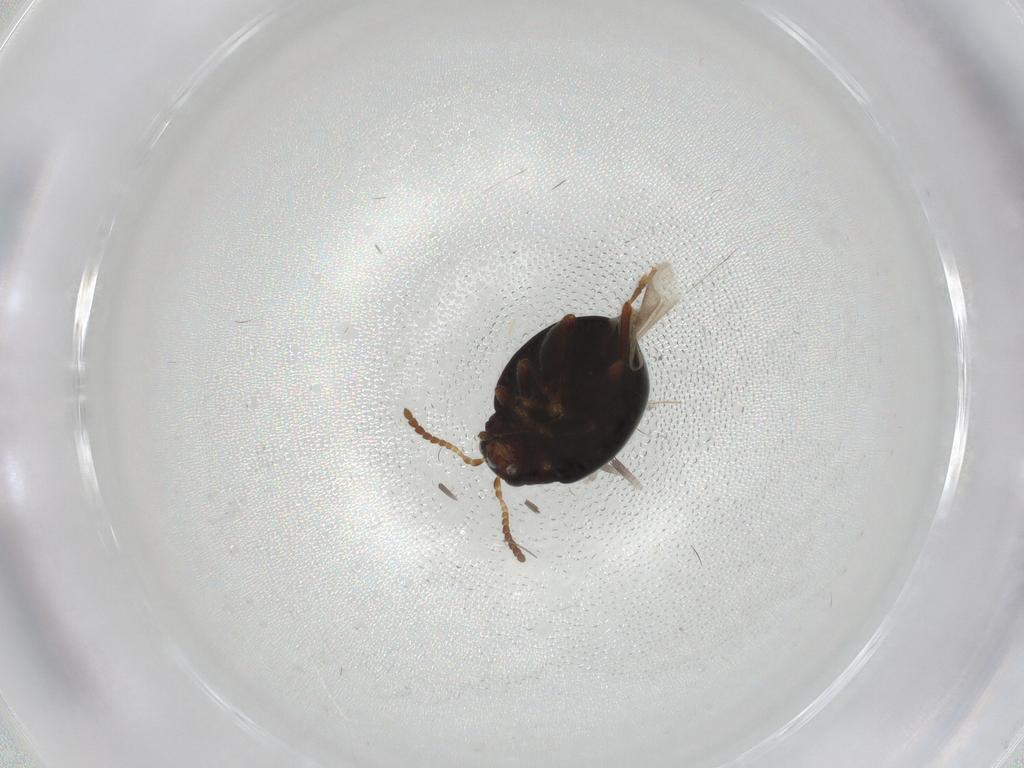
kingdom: Animalia
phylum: Arthropoda
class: Insecta
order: Coleoptera
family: Chrysomelidae
